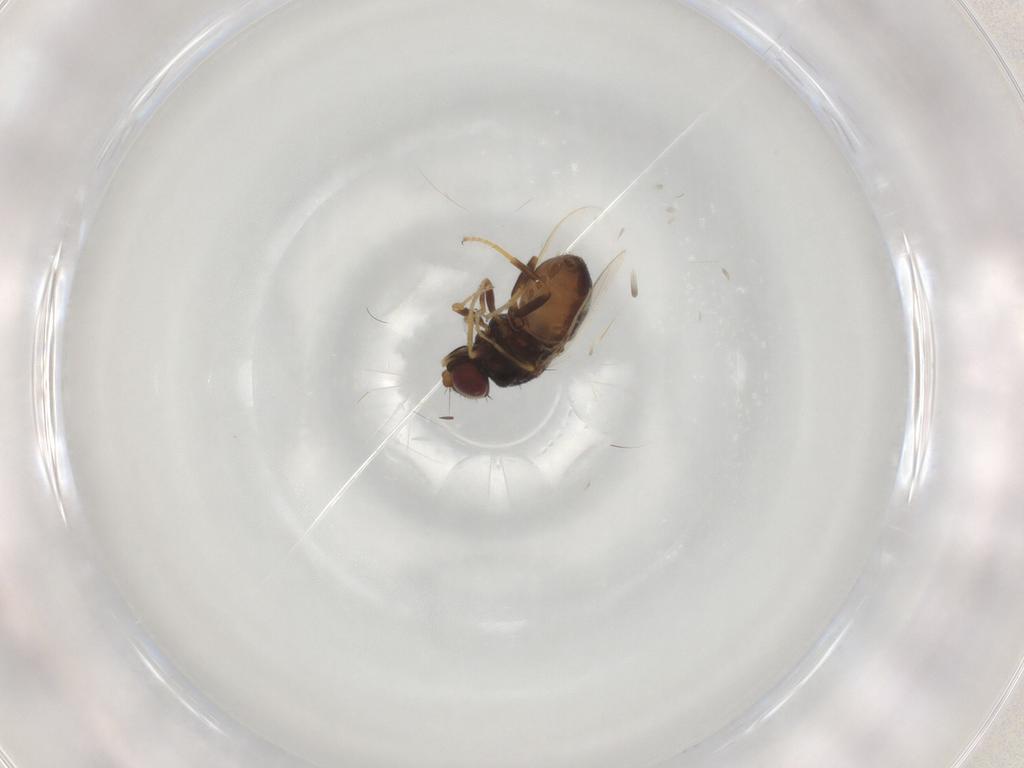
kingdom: Animalia
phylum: Arthropoda
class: Insecta
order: Diptera
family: Chloropidae
